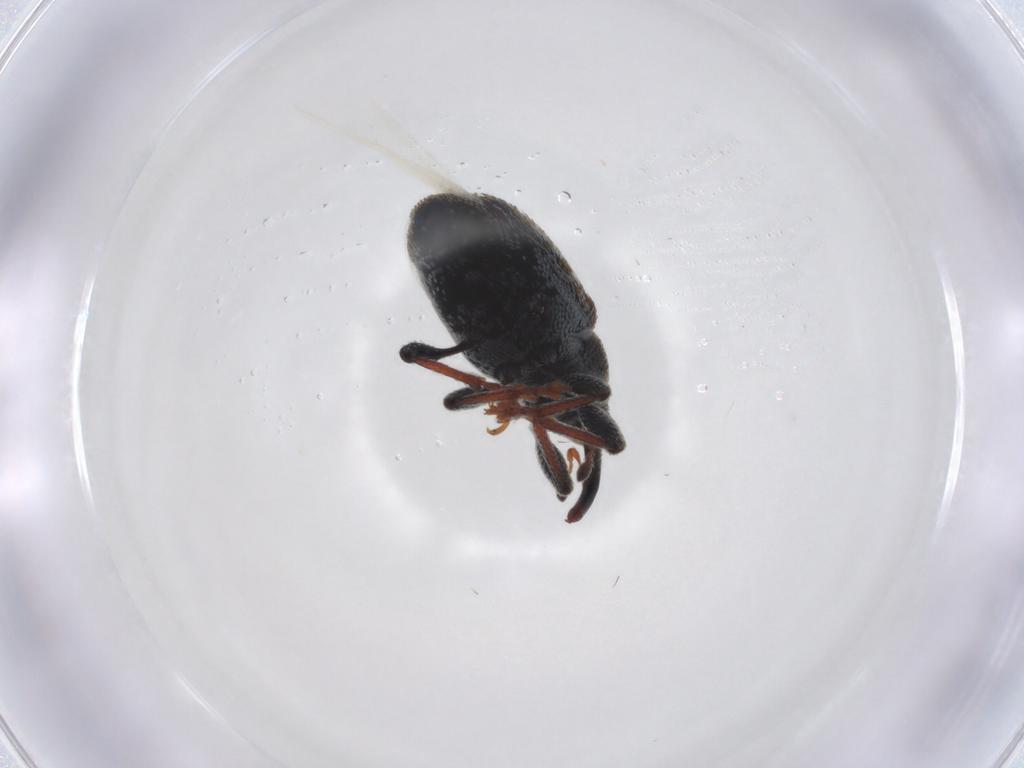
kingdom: Animalia
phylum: Arthropoda
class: Insecta
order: Coleoptera
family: Curculionidae
